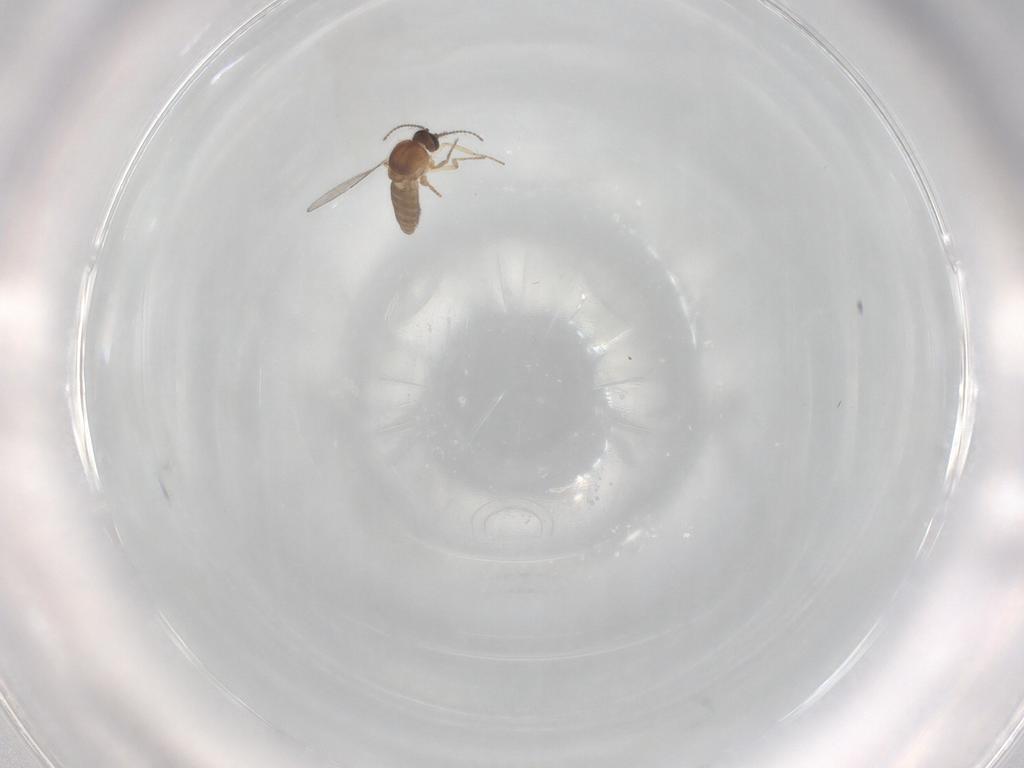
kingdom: Animalia
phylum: Arthropoda
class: Insecta
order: Diptera
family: Ceratopogonidae
